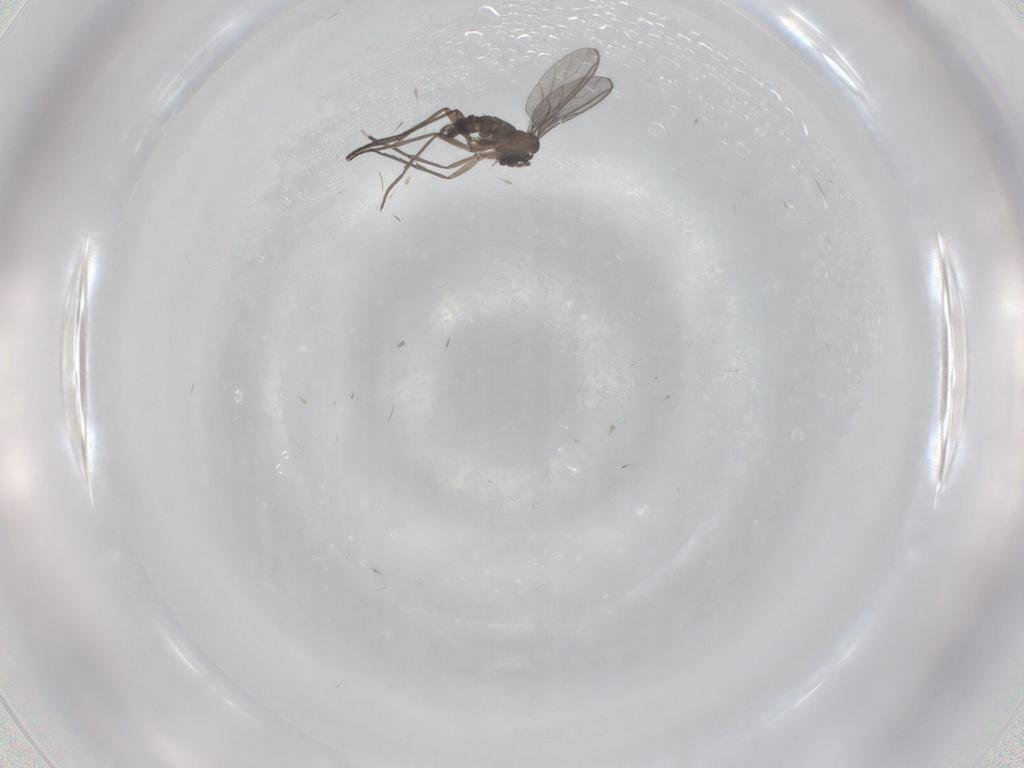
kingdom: Animalia
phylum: Arthropoda
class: Insecta
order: Diptera
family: Sciaridae
